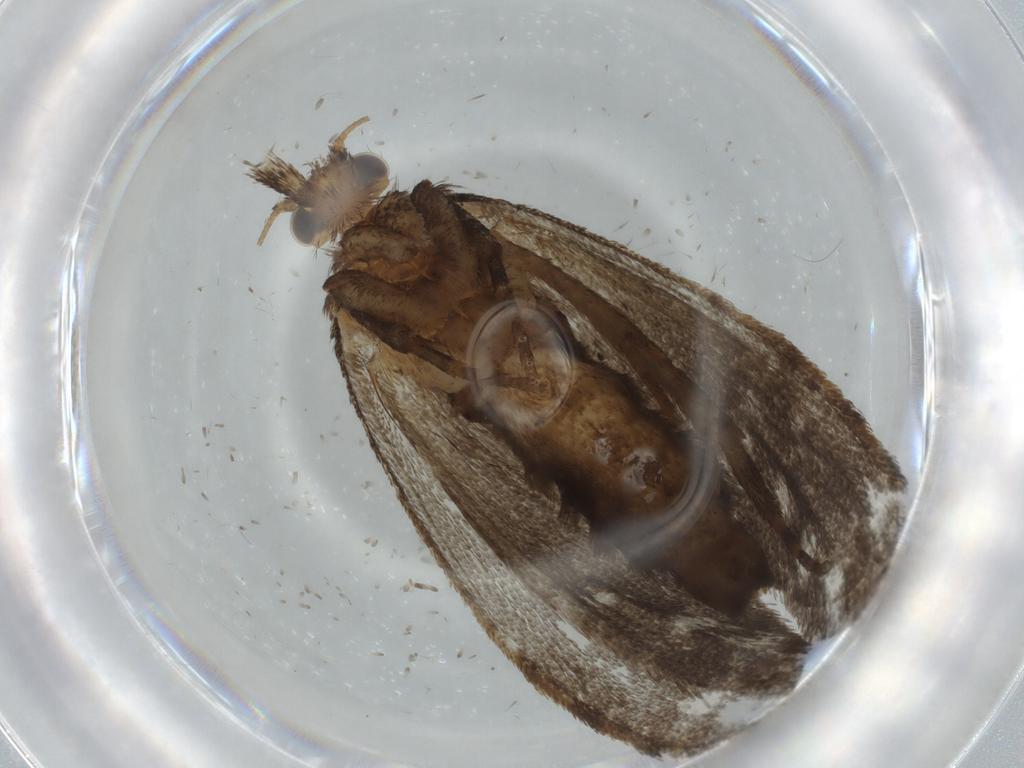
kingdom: Animalia
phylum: Arthropoda
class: Insecta
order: Lepidoptera
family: Tineidae
